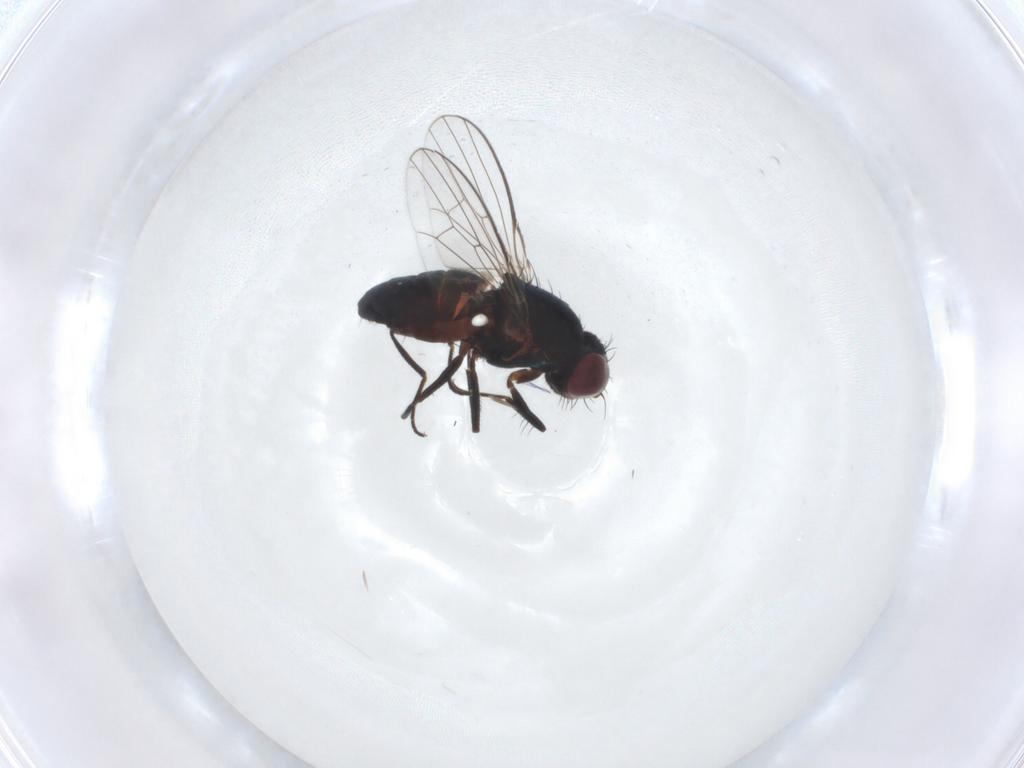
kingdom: Animalia
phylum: Arthropoda
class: Insecta
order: Diptera
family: Carnidae
